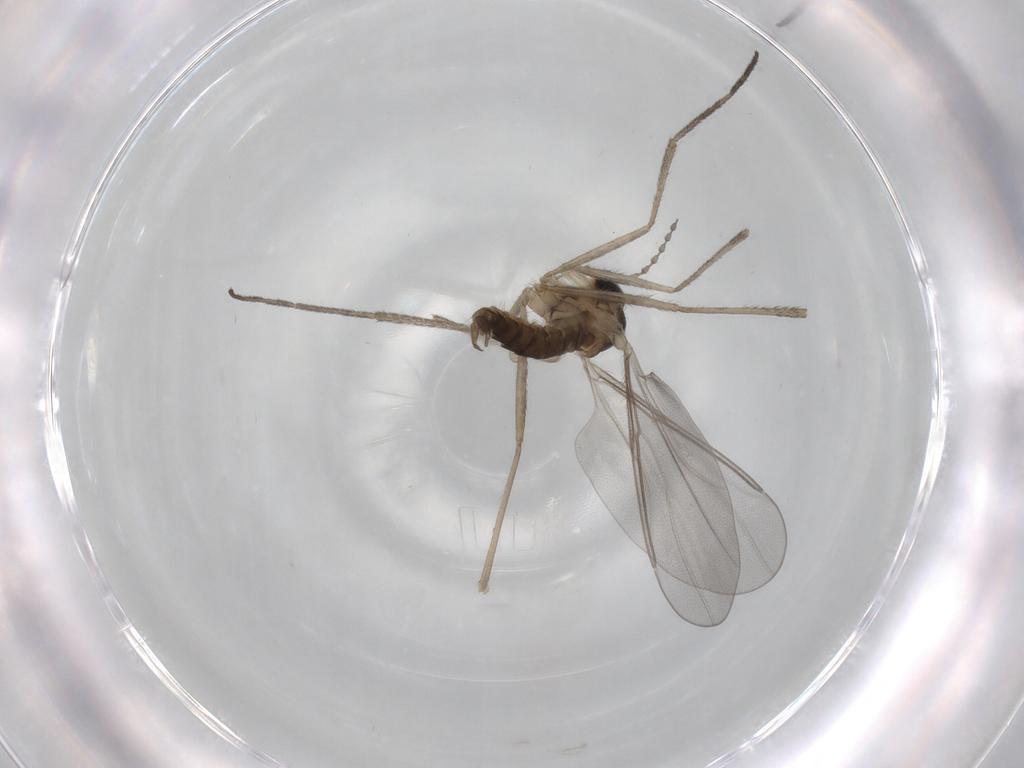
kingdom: Animalia
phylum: Arthropoda
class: Insecta
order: Diptera
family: Cecidomyiidae
